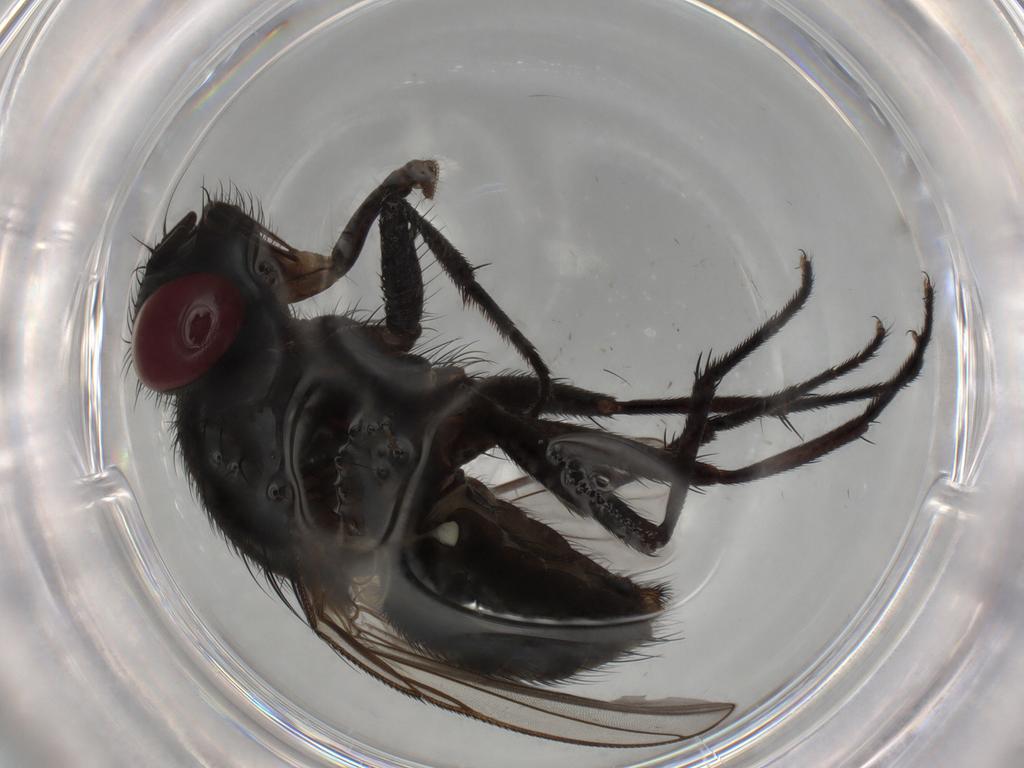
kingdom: Animalia
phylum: Arthropoda
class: Insecta
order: Diptera
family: Muscidae
